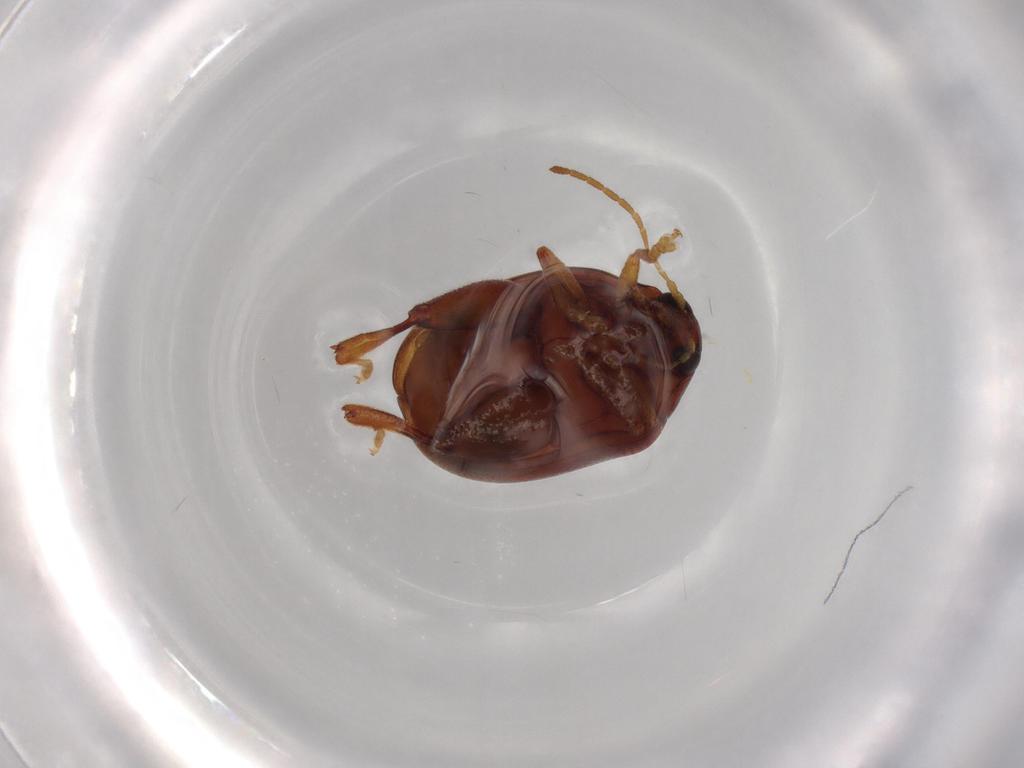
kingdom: Animalia
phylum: Arthropoda
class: Insecta
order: Coleoptera
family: Chrysomelidae
